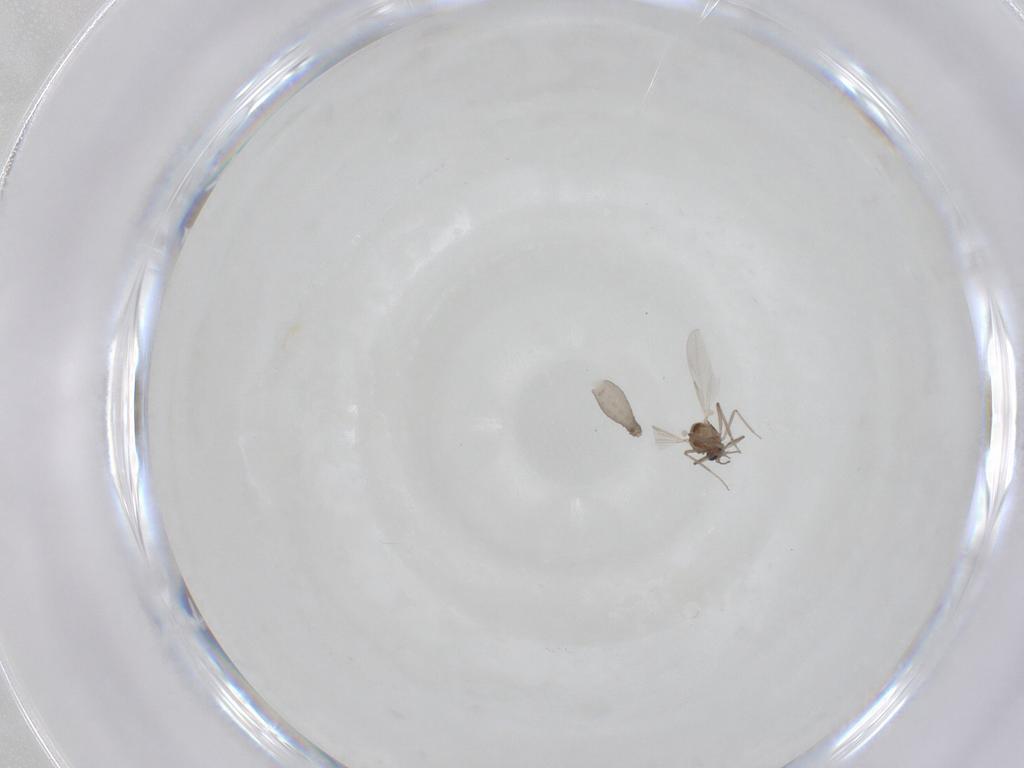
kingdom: Animalia
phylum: Arthropoda
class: Insecta
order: Diptera
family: Ceratopogonidae
